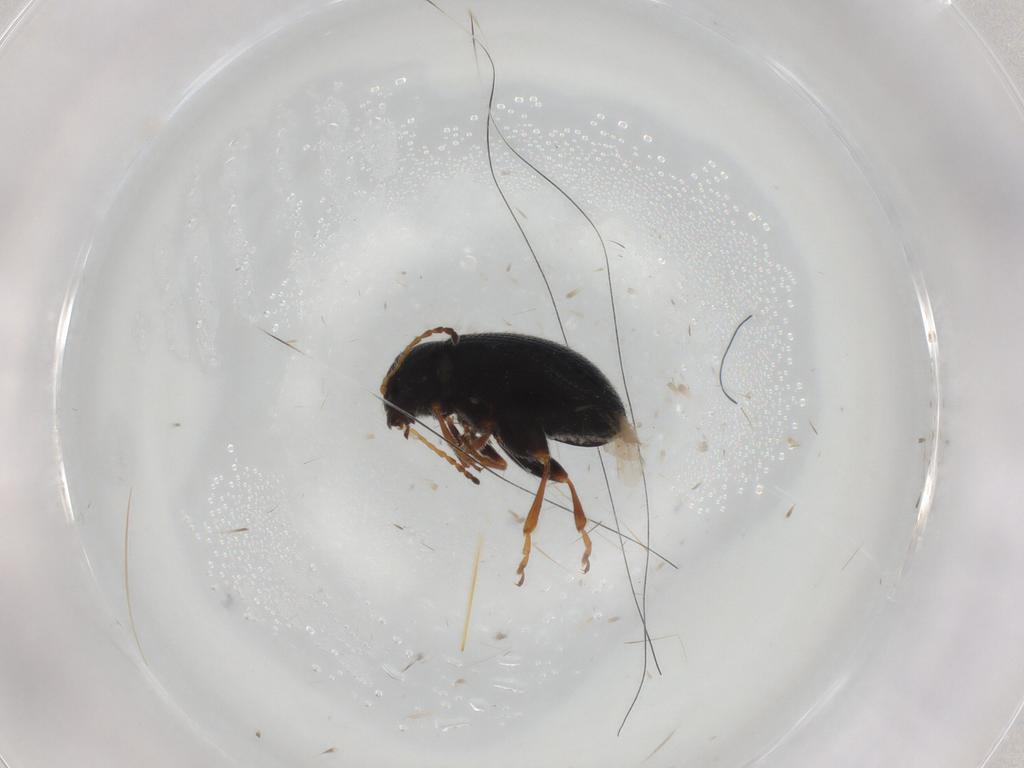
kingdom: Animalia
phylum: Arthropoda
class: Insecta
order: Coleoptera
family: Chrysomelidae
